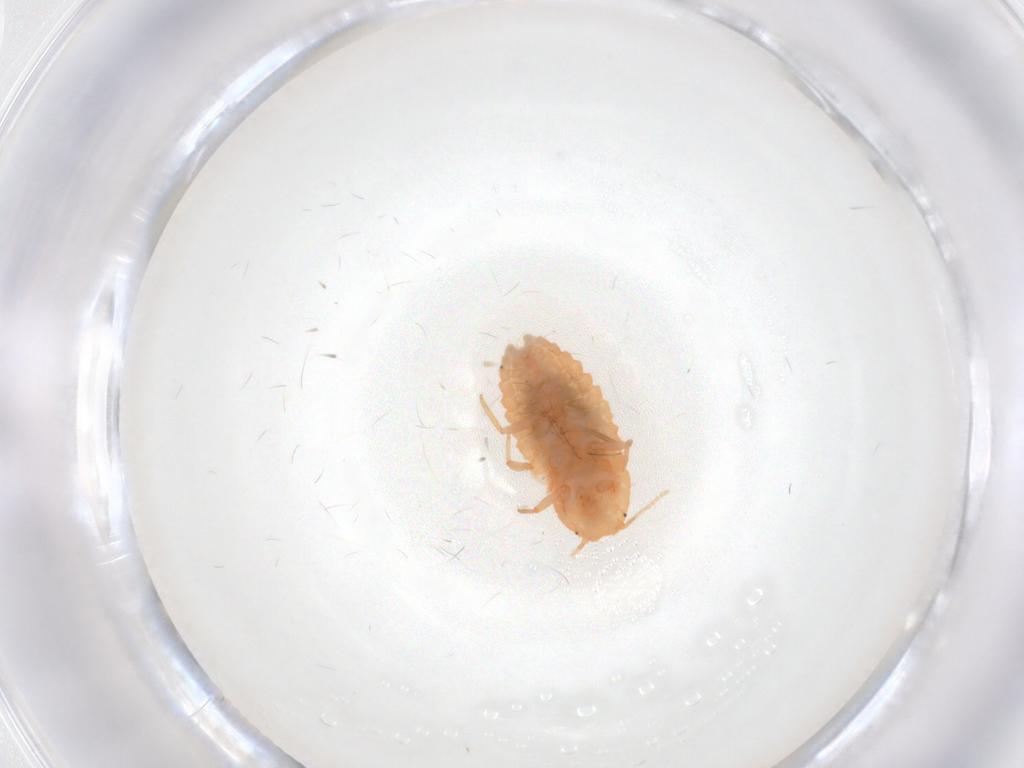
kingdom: Animalia
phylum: Arthropoda
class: Insecta
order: Hemiptera
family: Pseudococcidae
